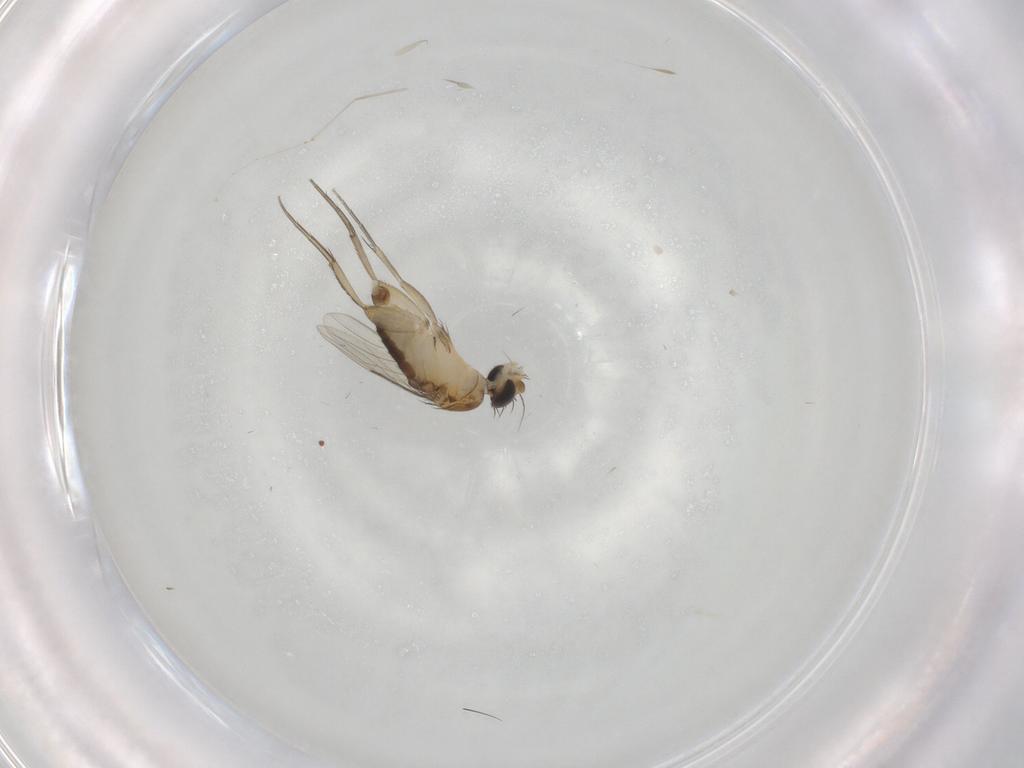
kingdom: Animalia
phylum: Arthropoda
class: Insecta
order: Diptera
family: Phoridae
